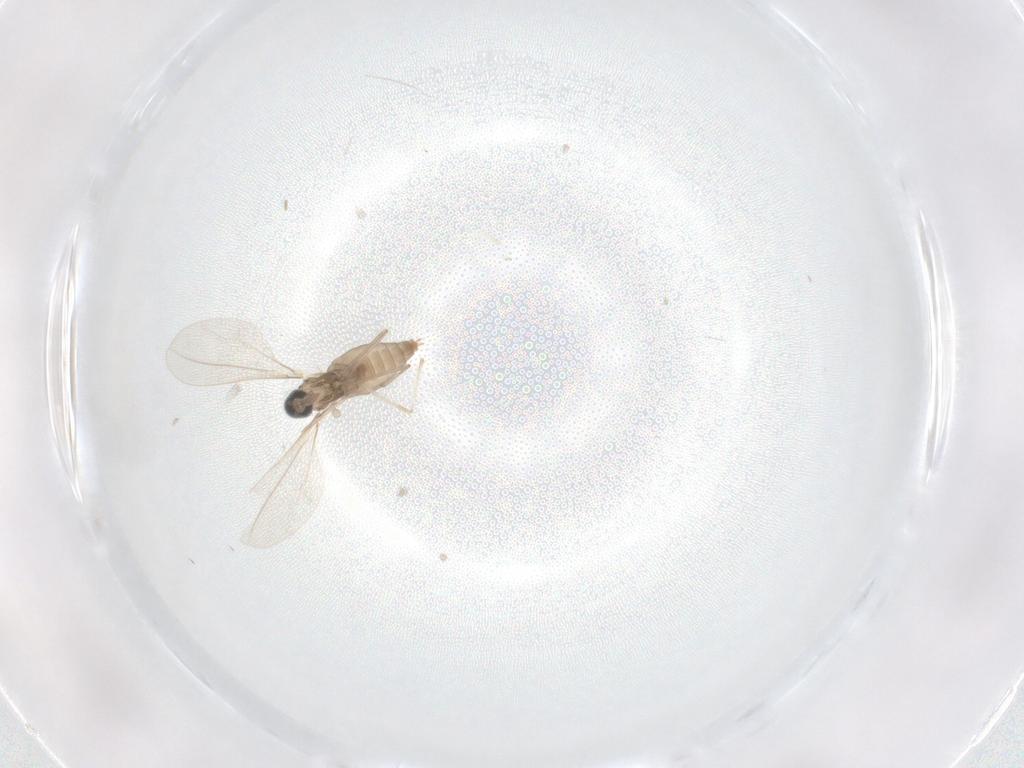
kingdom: Animalia
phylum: Arthropoda
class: Insecta
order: Diptera
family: Cecidomyiidae
